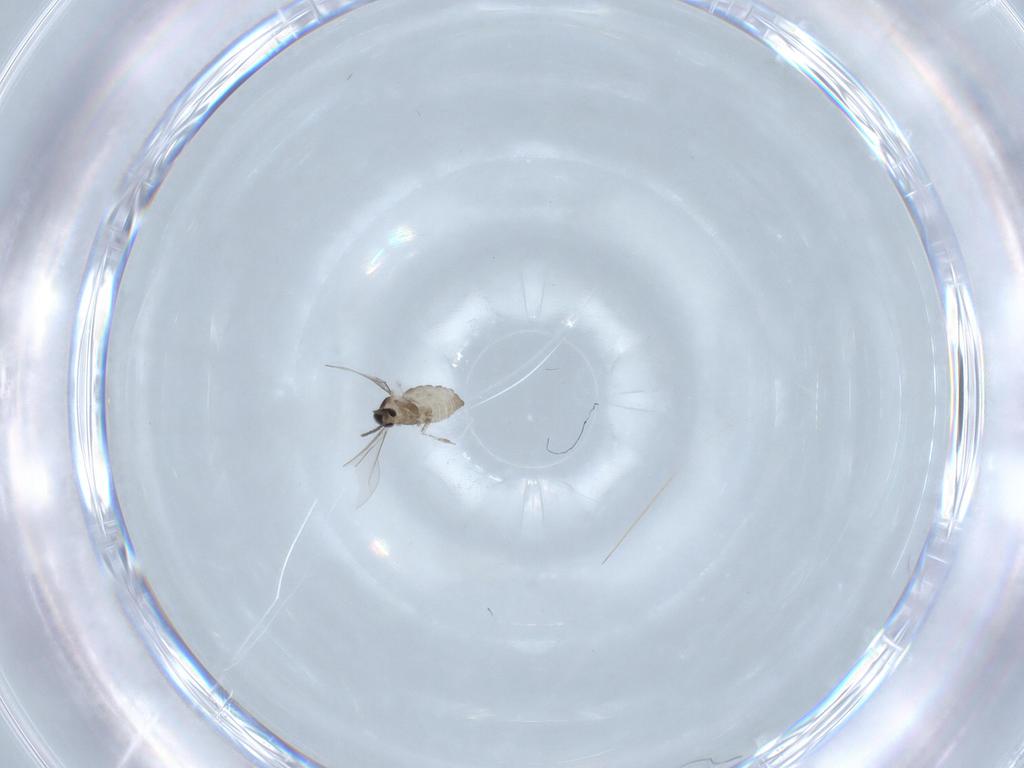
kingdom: Animalia
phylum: Arthropoda
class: Insecta
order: Diptera
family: Cecidomyiidae
